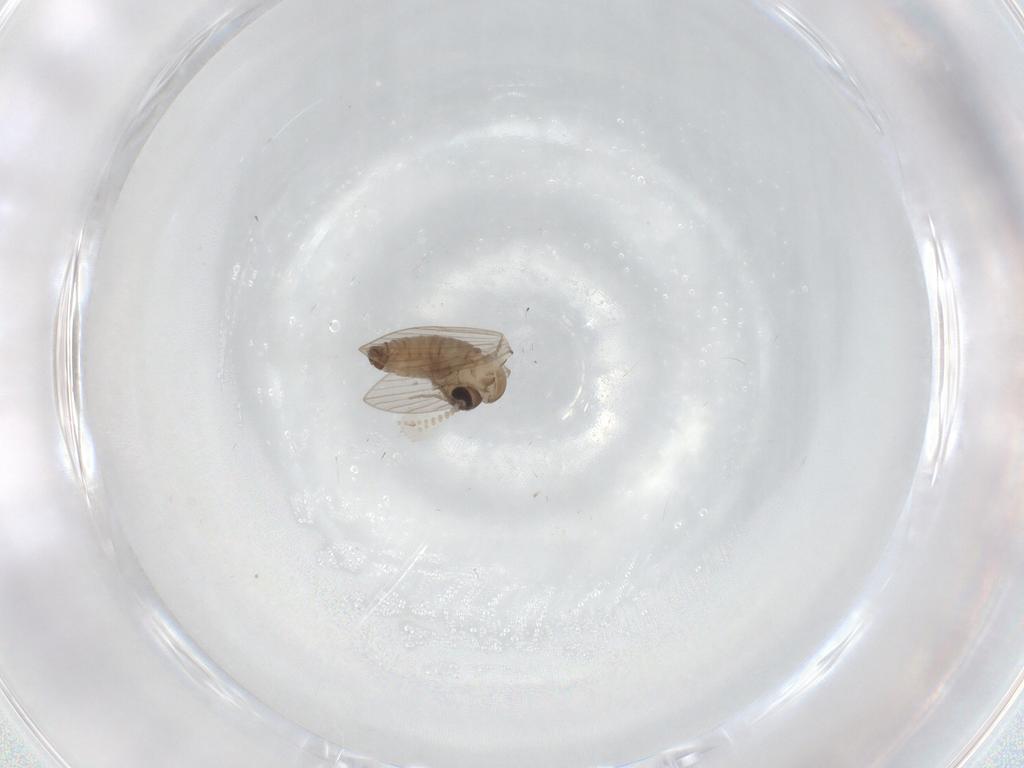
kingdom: Animalia
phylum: Arthropoda
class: Insecta
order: Diptera
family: Psychodidae
